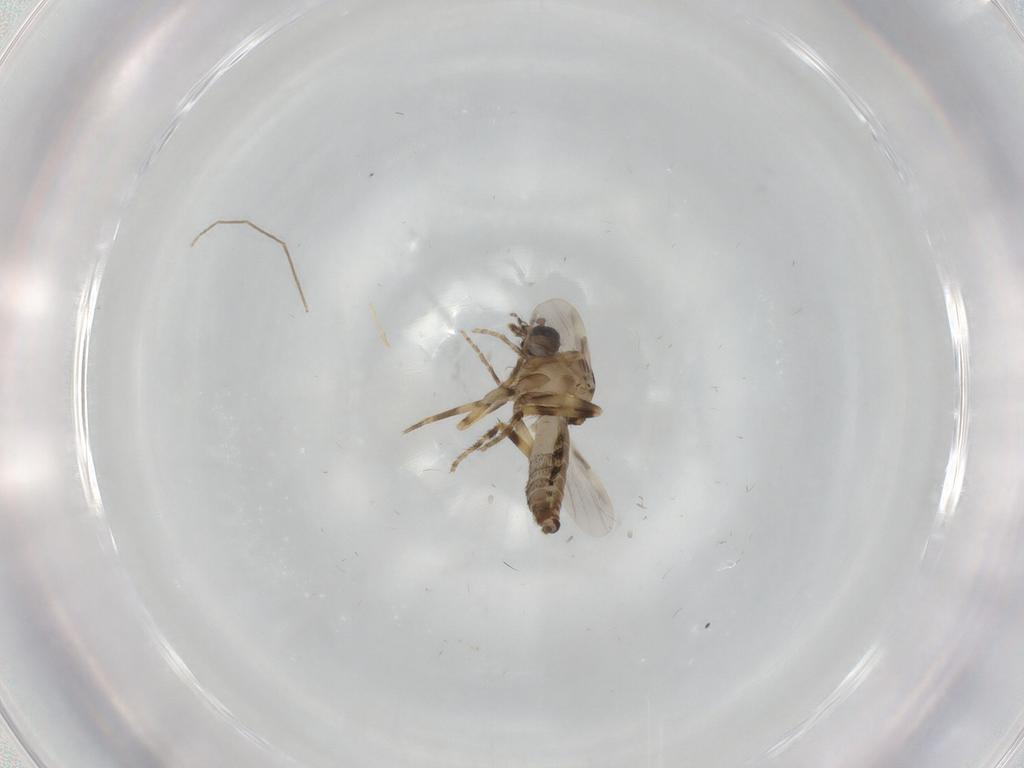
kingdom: Animalia
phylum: Arthropoda
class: Insecta
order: Diptera
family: Ceratopogonidae
